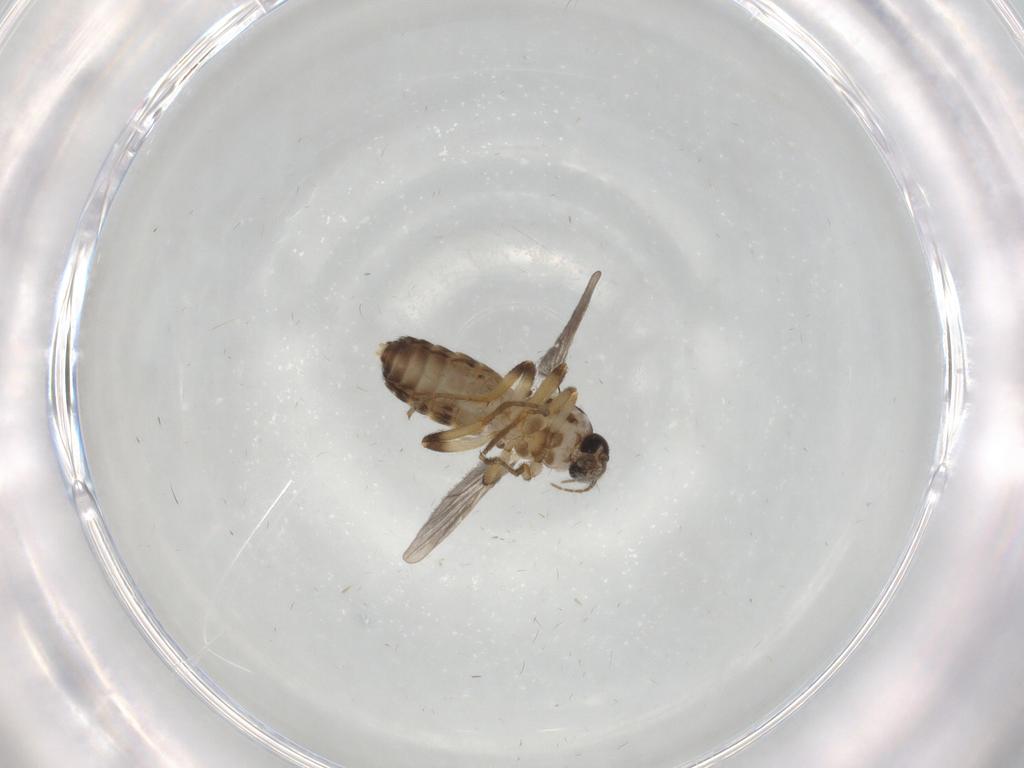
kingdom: Animalia
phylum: Arthropoda
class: Insecta
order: Diptera
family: Ceratopogonidae
